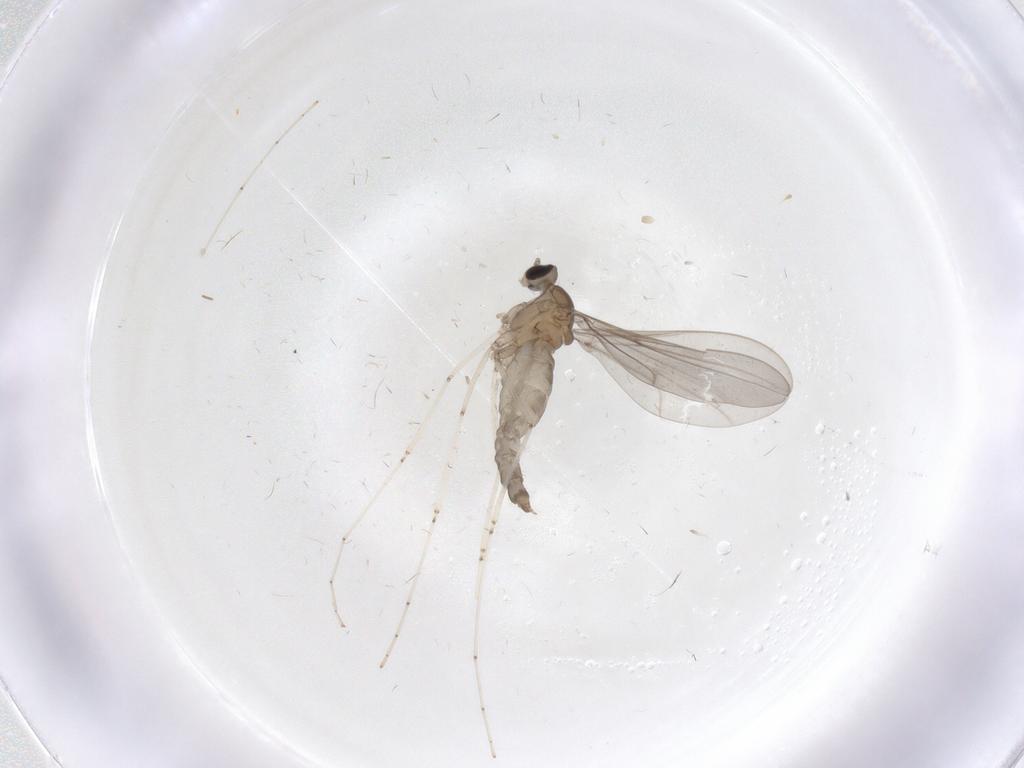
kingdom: Animalia
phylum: Arthropoda
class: Insecta
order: Diptera
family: Cecidomyiidae
